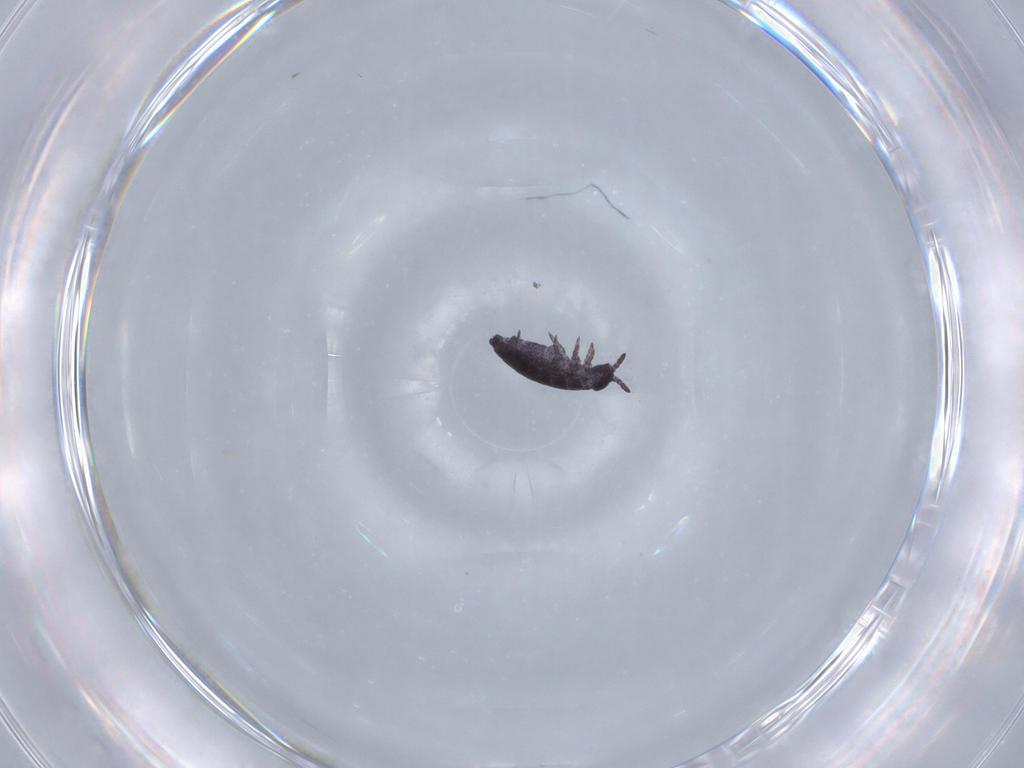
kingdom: Animalia
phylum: Arthropoda
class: Collembola
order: Poduromorpha
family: Hypogastruridae
